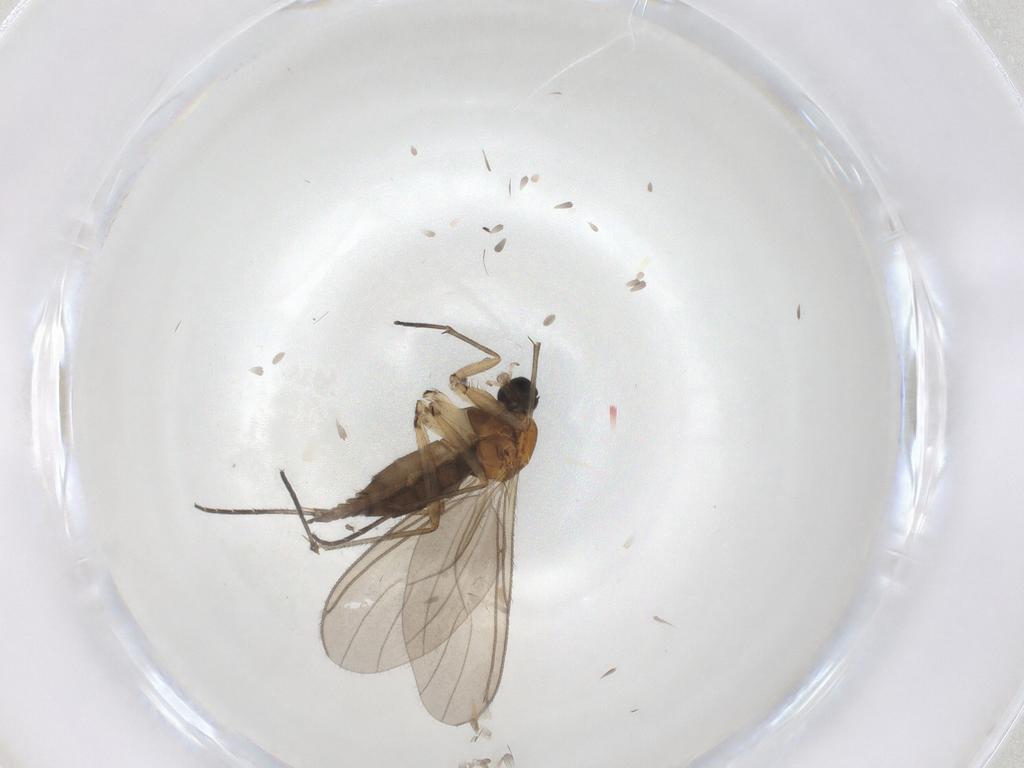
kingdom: Animalia
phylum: Arthropoda
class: Insecta
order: Diptera
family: Sciaridae
